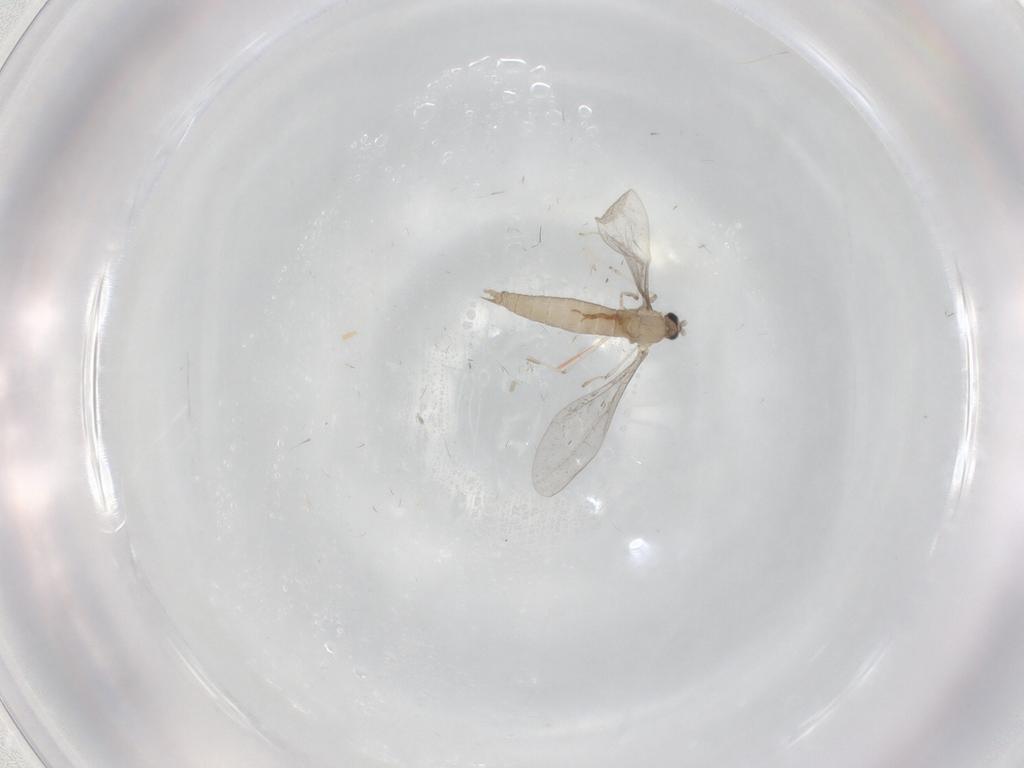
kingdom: Animalia
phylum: Arthropoda
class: Insecta
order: Diptera
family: Cecidomyiidae
